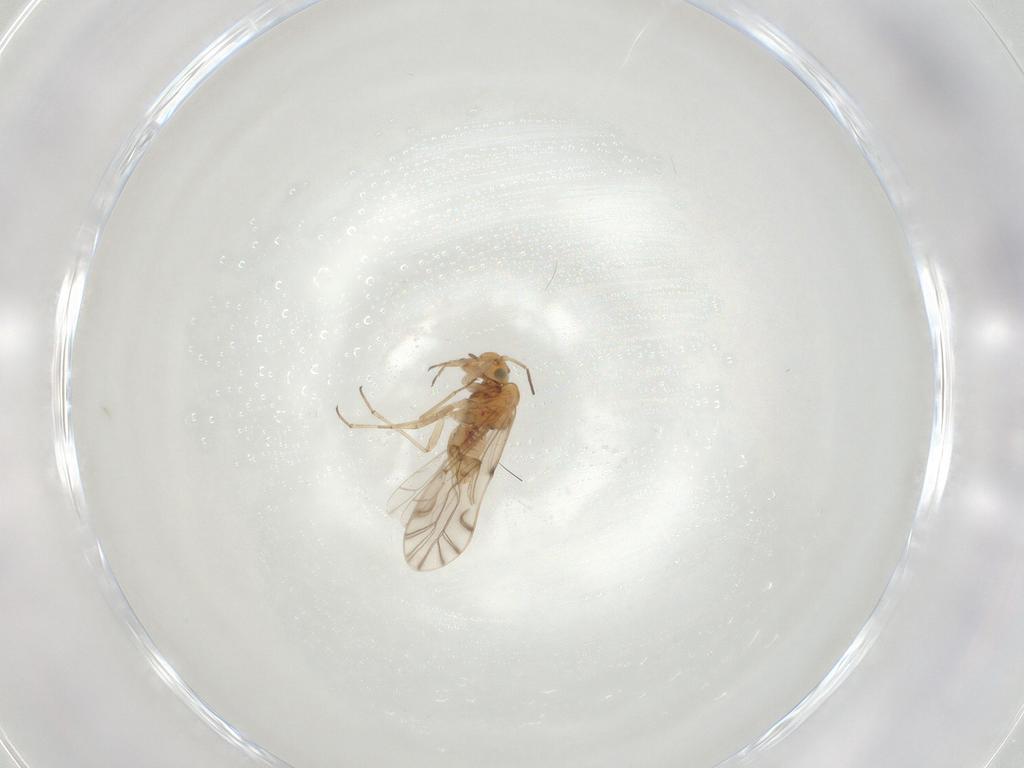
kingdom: Animalia
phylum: Arthropoda
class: Insecta
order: Psocodea
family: Lachesillidae
